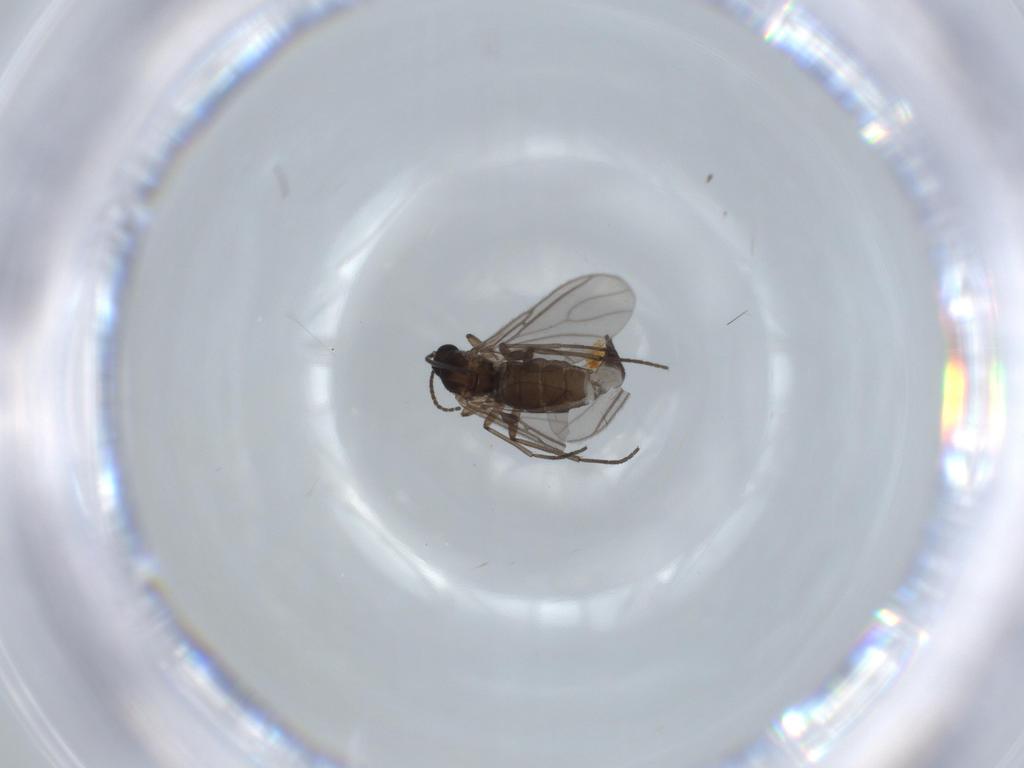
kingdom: Animalia
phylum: Arthropoda
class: Insecta
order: Diptera
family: Sciaridae
